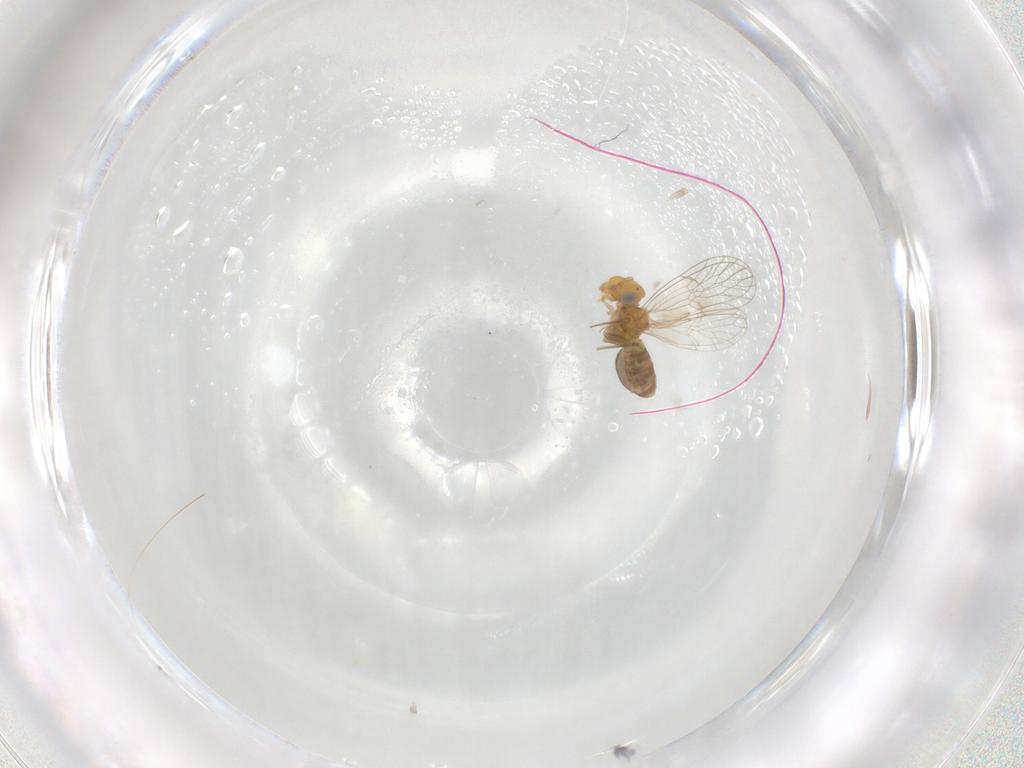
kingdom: Animalia
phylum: Arthropoda
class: Insecta
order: Psocodea
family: Prionoglarididae
